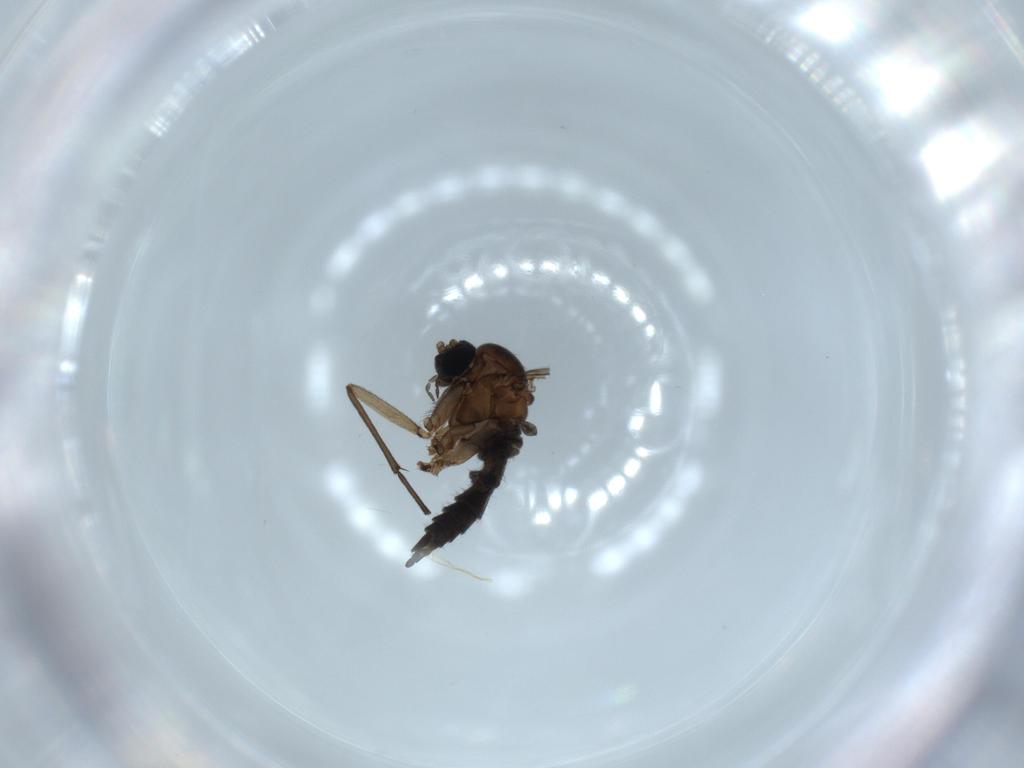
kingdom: Animalia
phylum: Arthropoda
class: Insecta
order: Diptera
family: Sciaridae
